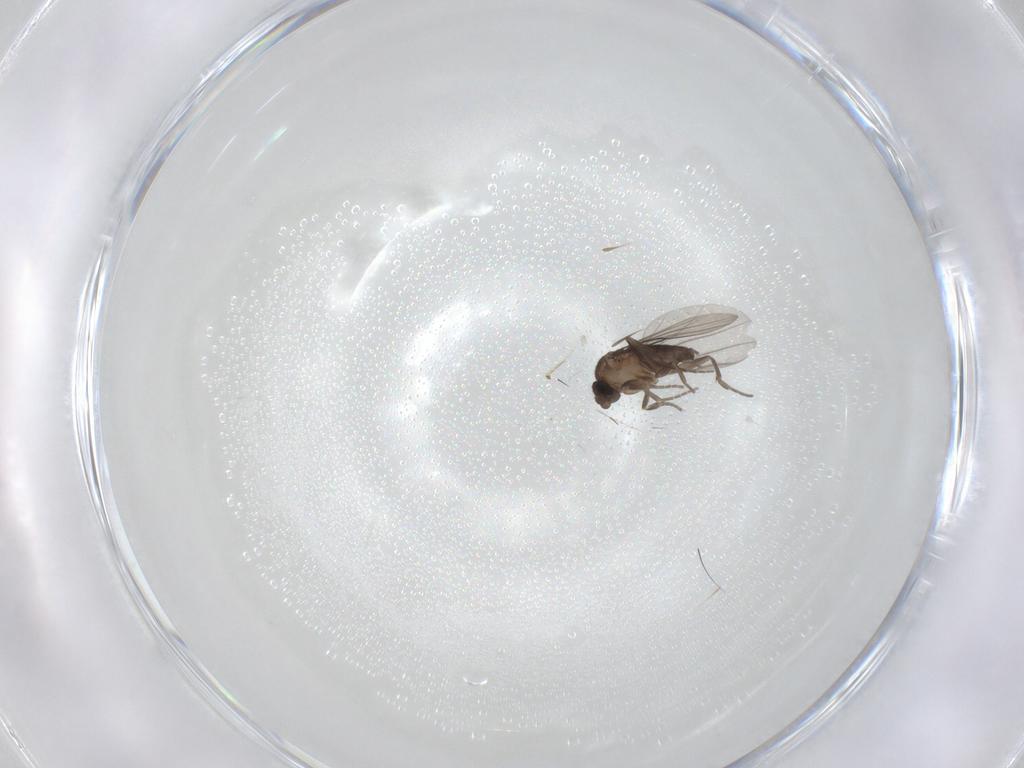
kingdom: Animalia
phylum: Arthropoda
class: Insecta
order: Diptera
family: Phoridae
